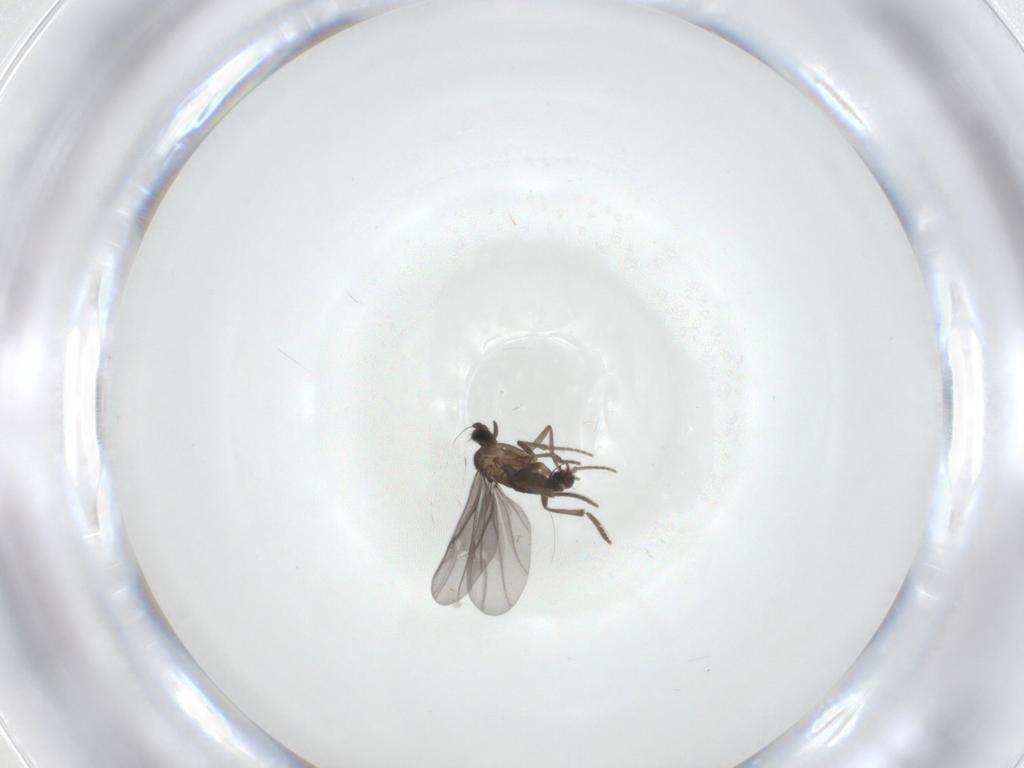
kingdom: Animalia
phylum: Arthropoda
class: Insecta
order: Diptera
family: Phoridae
